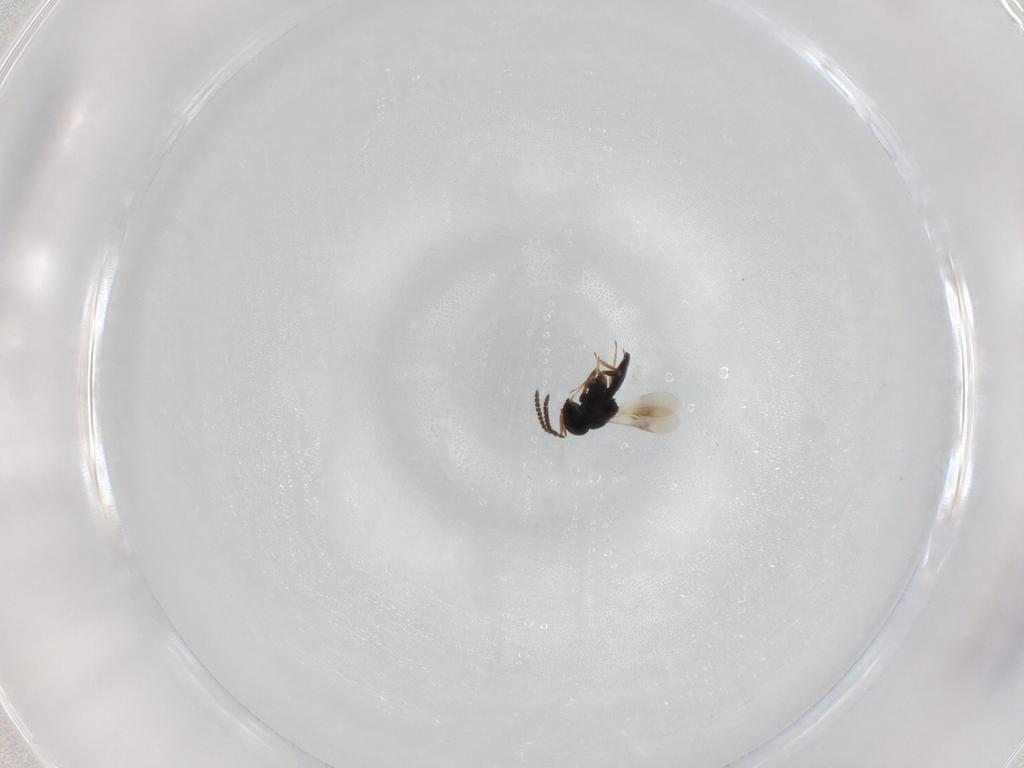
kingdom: Animalia
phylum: Arthropoda
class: Insecta
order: Hymenoptera
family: Scelionidae
